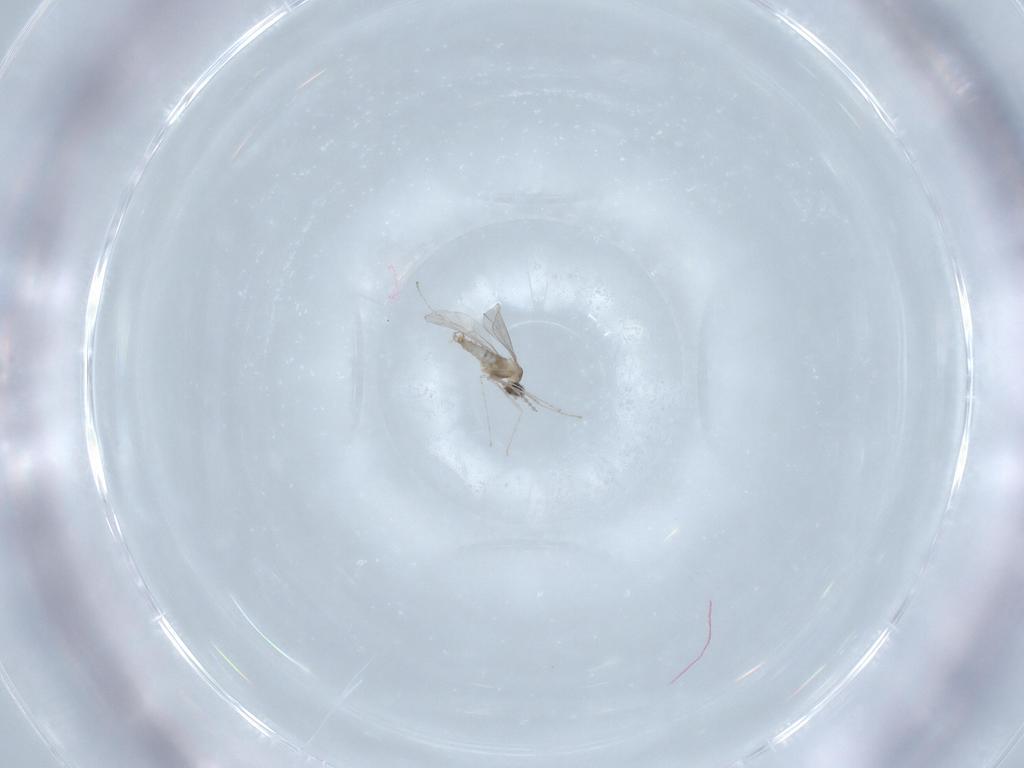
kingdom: Animalia
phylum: Arthropoda
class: Insecta
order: Diptera
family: Cecidomyiidae
